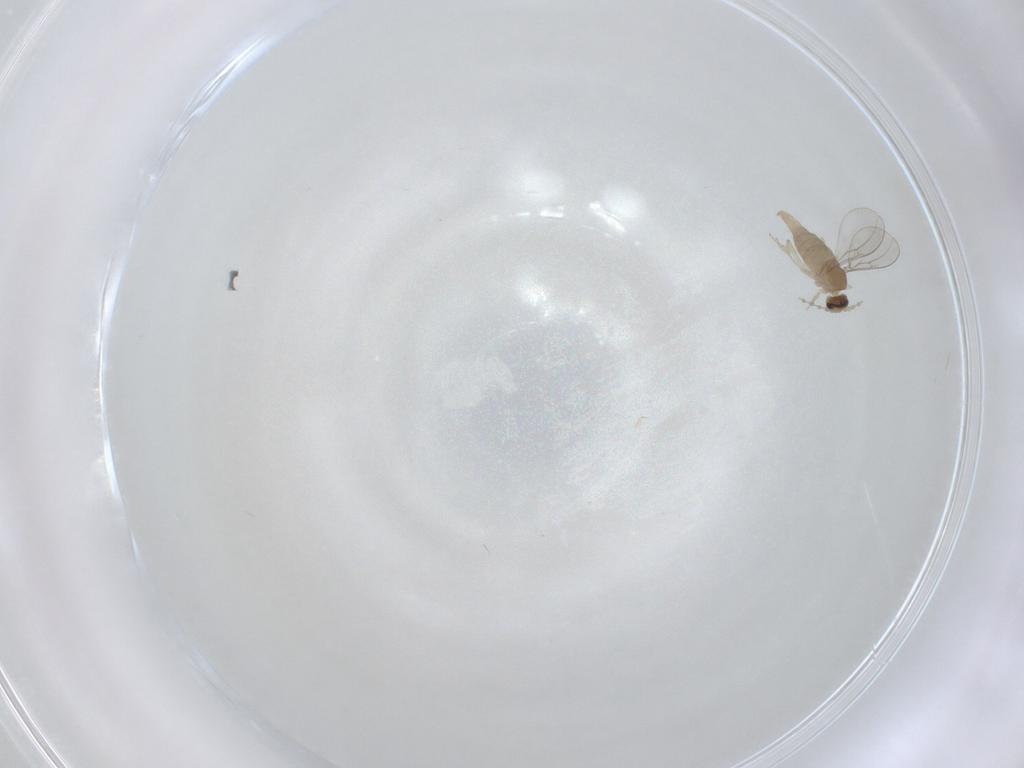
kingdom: Animalia
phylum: Arthropoda
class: Insecta
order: Diptera
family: Cecidomyiidae
